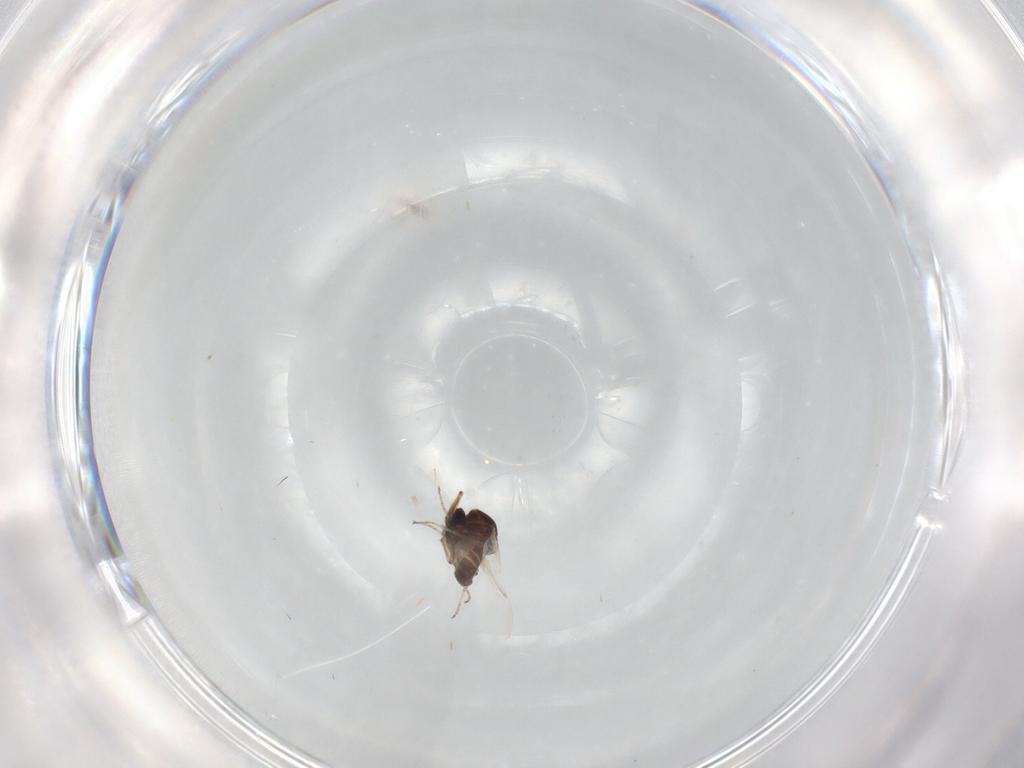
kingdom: Animalia
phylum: Arthropoda
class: Insecta
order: Diptera
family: Ceratopogonidae
